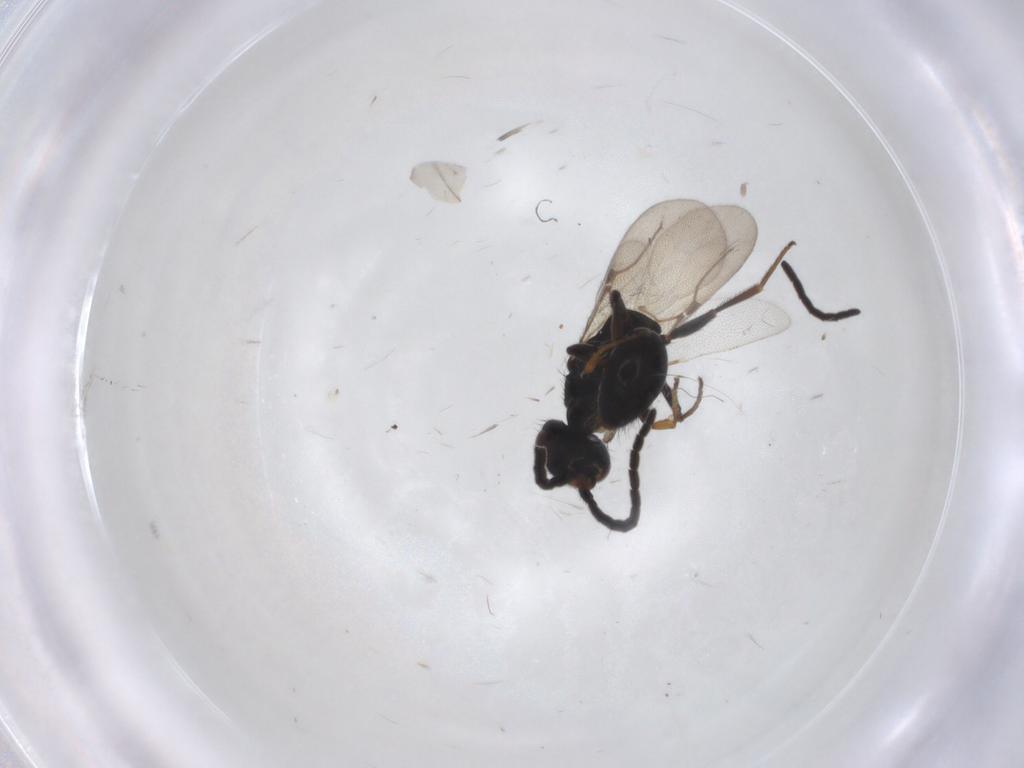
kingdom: Animalia
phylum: Arthropoda
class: Insecta
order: Hymenoptera
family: Bethylidae
